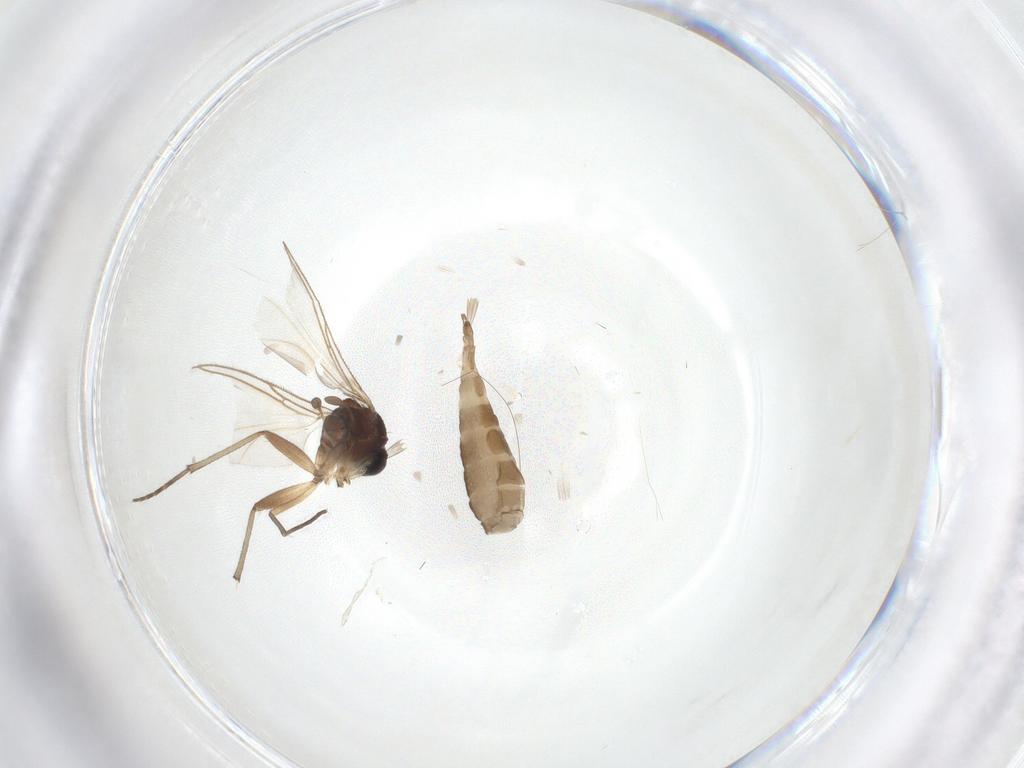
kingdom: Animalia
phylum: Arthropoda
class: Insecta
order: Diptera
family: Sciaridae
